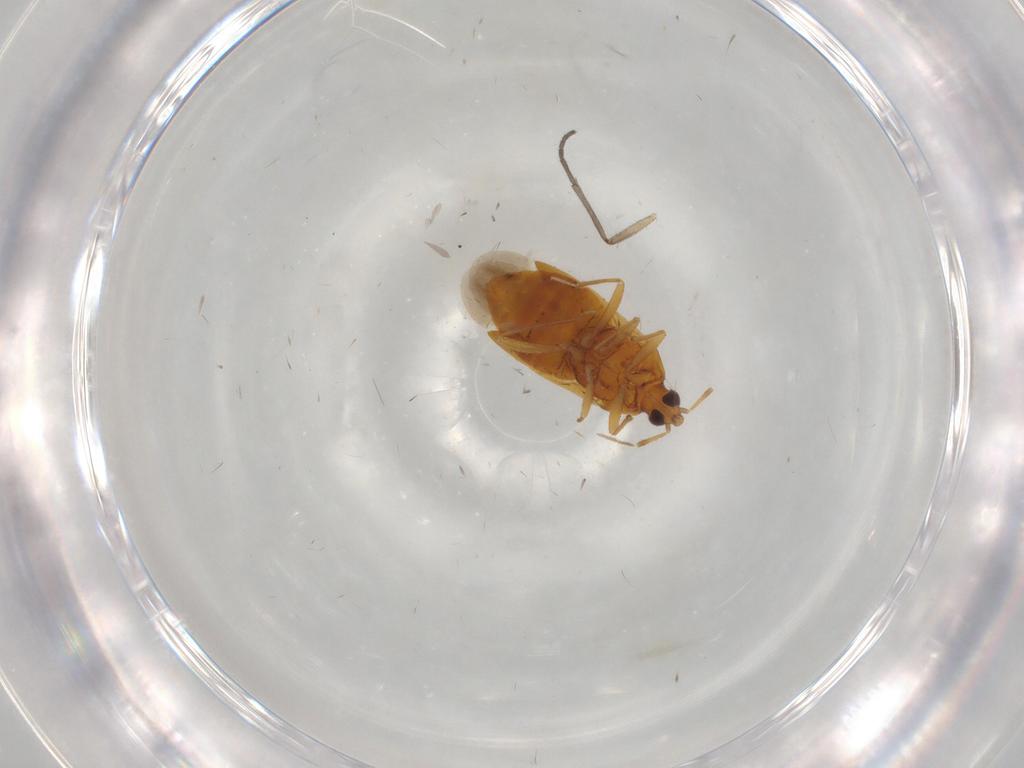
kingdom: Animalia
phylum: Arthropoda
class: Insecta
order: Hemiptera
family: Anthocoridae
